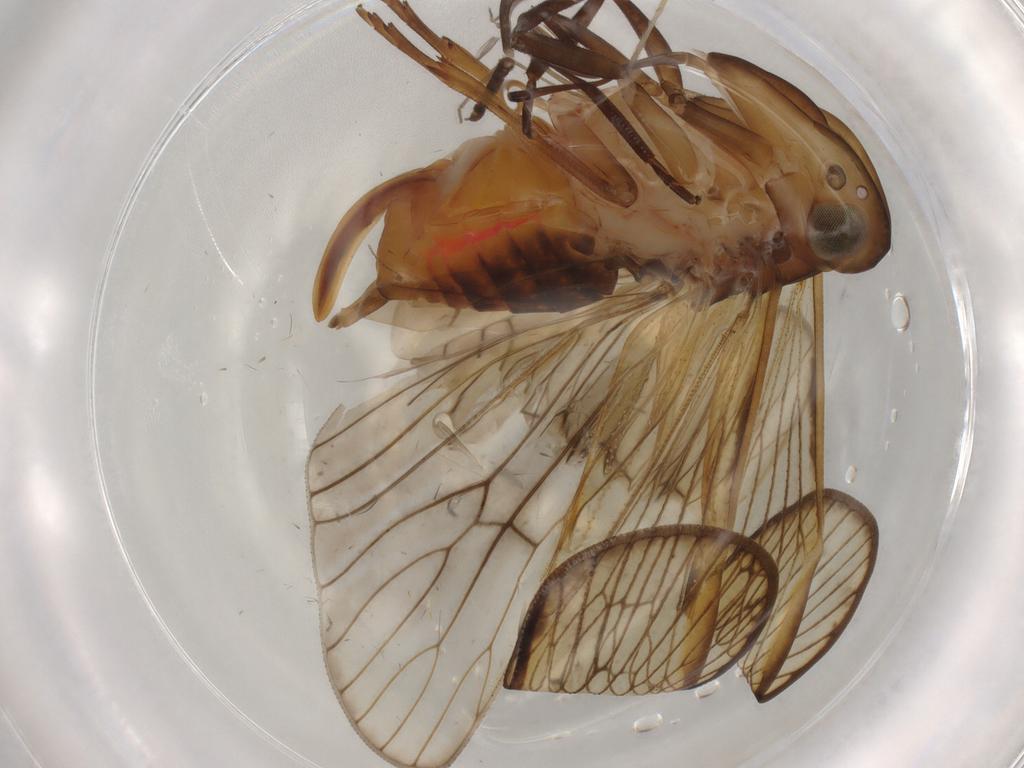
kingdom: Animalia
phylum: Arthropoda
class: Insecta
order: Hemiptera
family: Cixiidae
